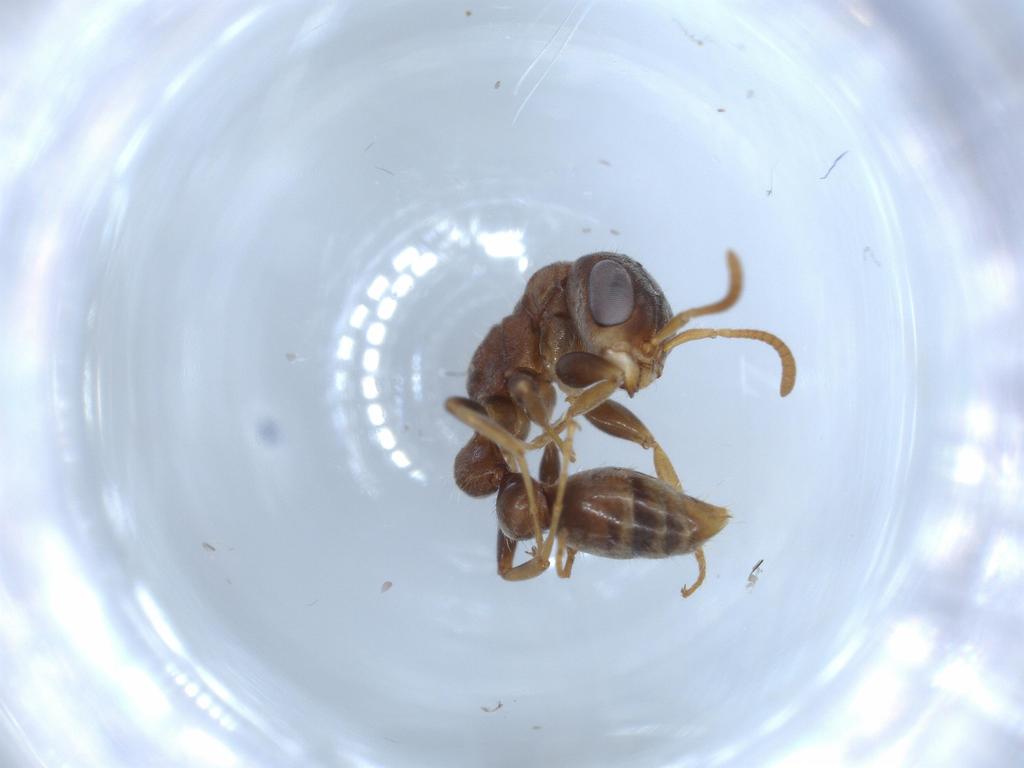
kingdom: Animalia
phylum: Arthropoda
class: Insecta
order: Hymenoptera
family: Formicidae
